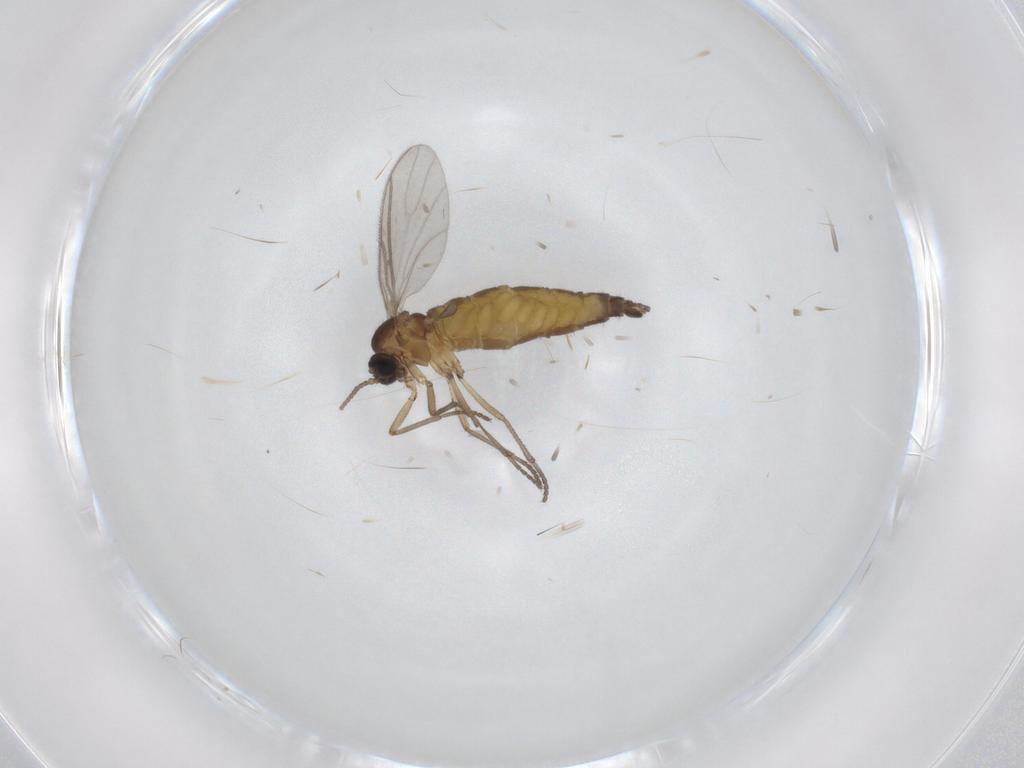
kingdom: Animalia
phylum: Arthropoda
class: Insecta
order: Diptera
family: Sciaridae
